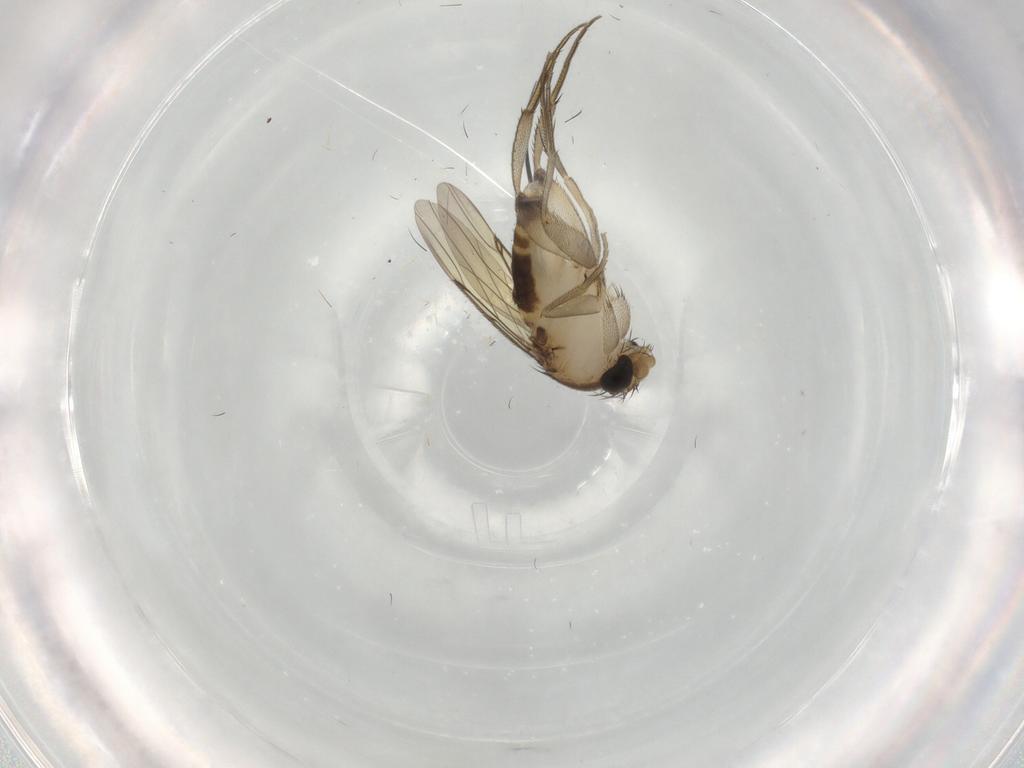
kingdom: Animalia
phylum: Arthropoda
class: Insecta
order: Diptera
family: Phoridae
